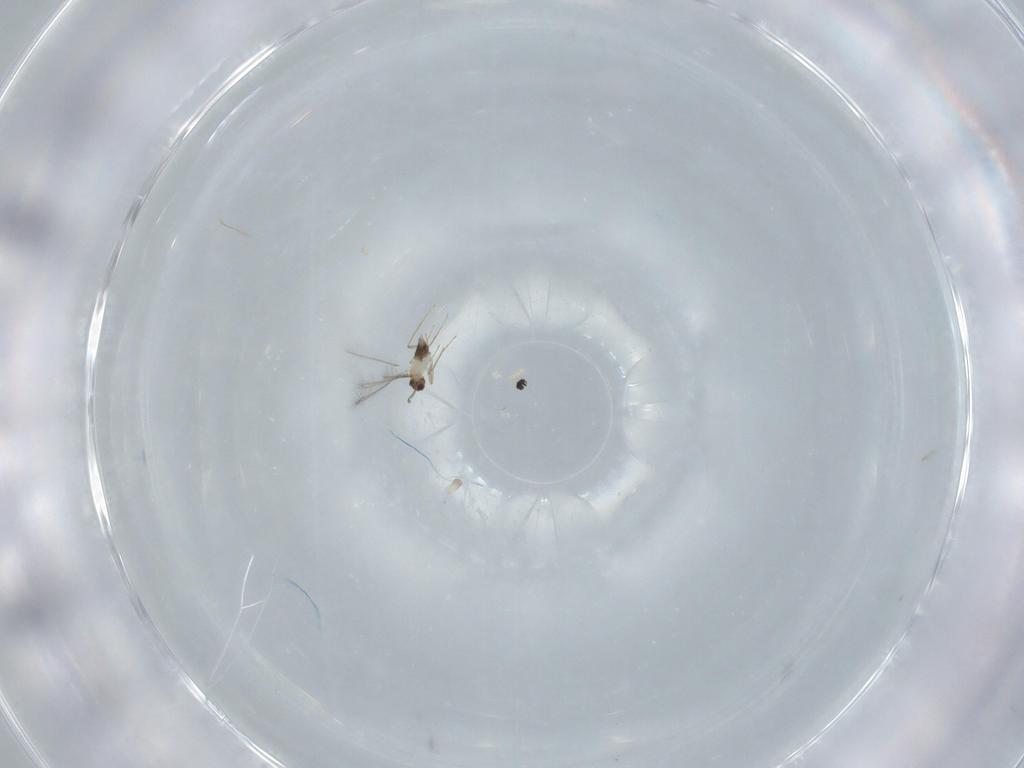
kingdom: Animalia
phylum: Arthropoda
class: Insecta
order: Hymenoptera
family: Mymaridae
